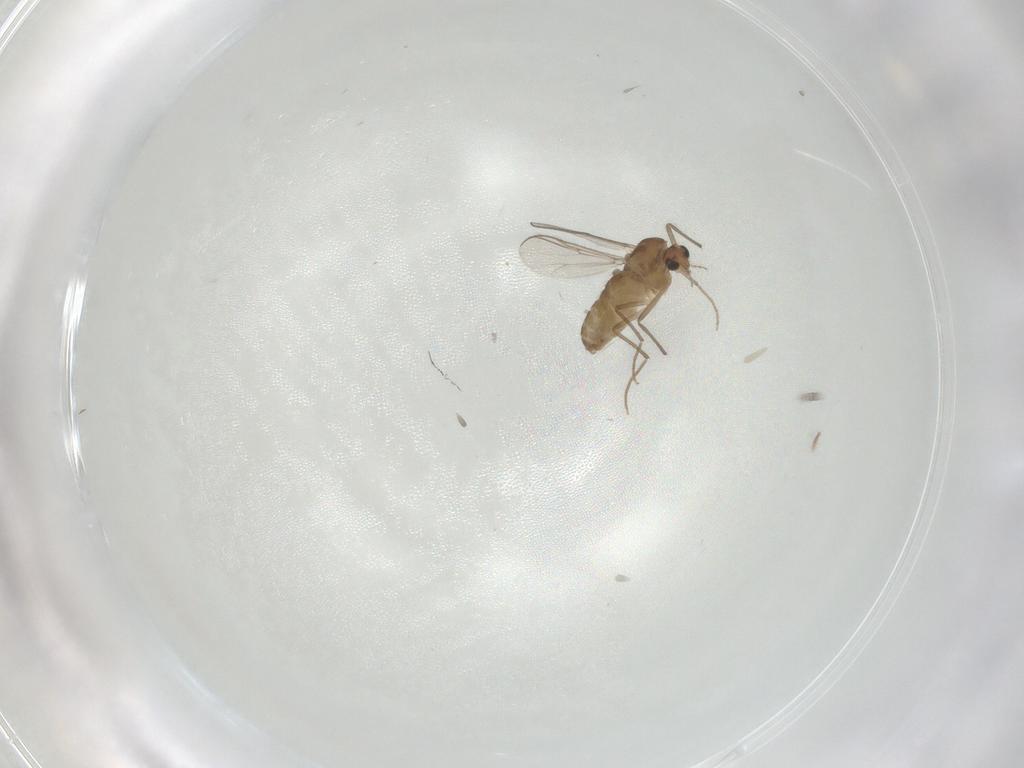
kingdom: Animalia
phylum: Arthropoda
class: Insecta
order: Diptera
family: Chironomidae
